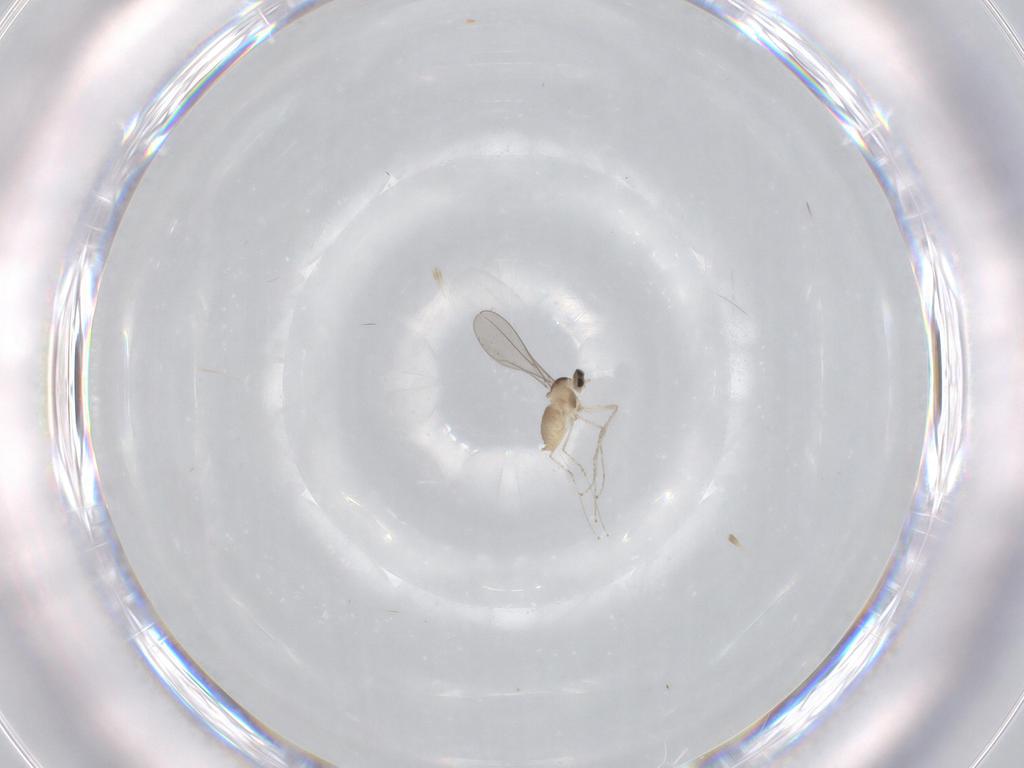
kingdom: Animalia
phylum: Arthropoda
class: Insecta
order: Diptera
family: Cecidomyiidae
